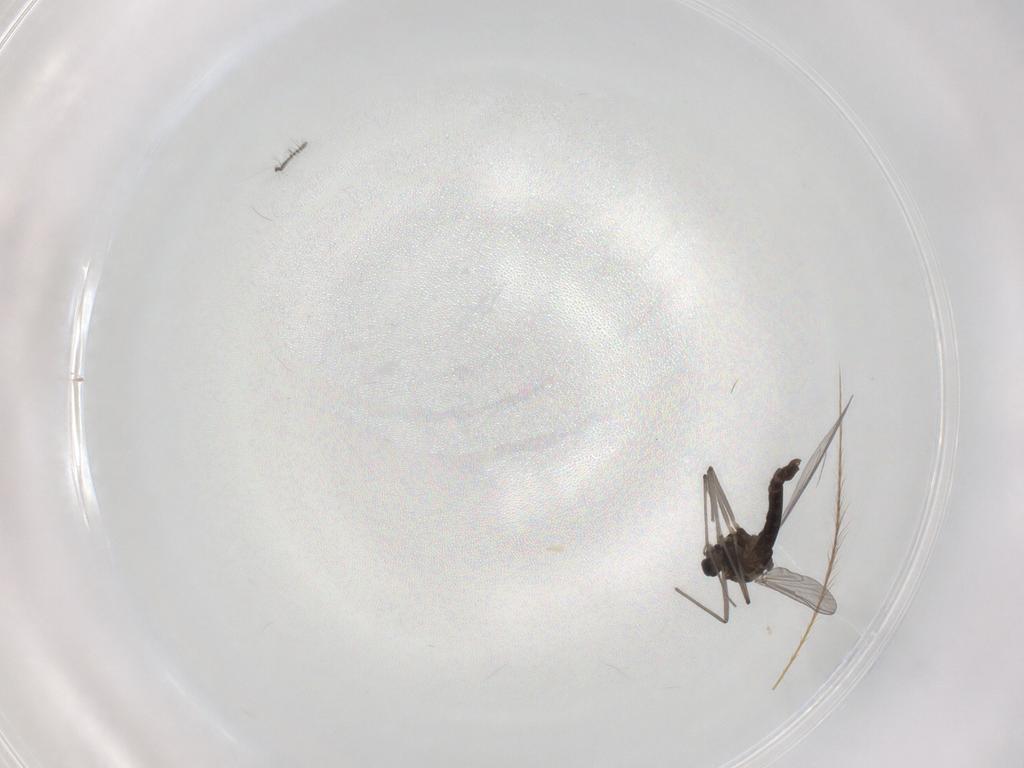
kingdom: Animalia
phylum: Arthropoda
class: Insecta
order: Diptera
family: Chironomidae
